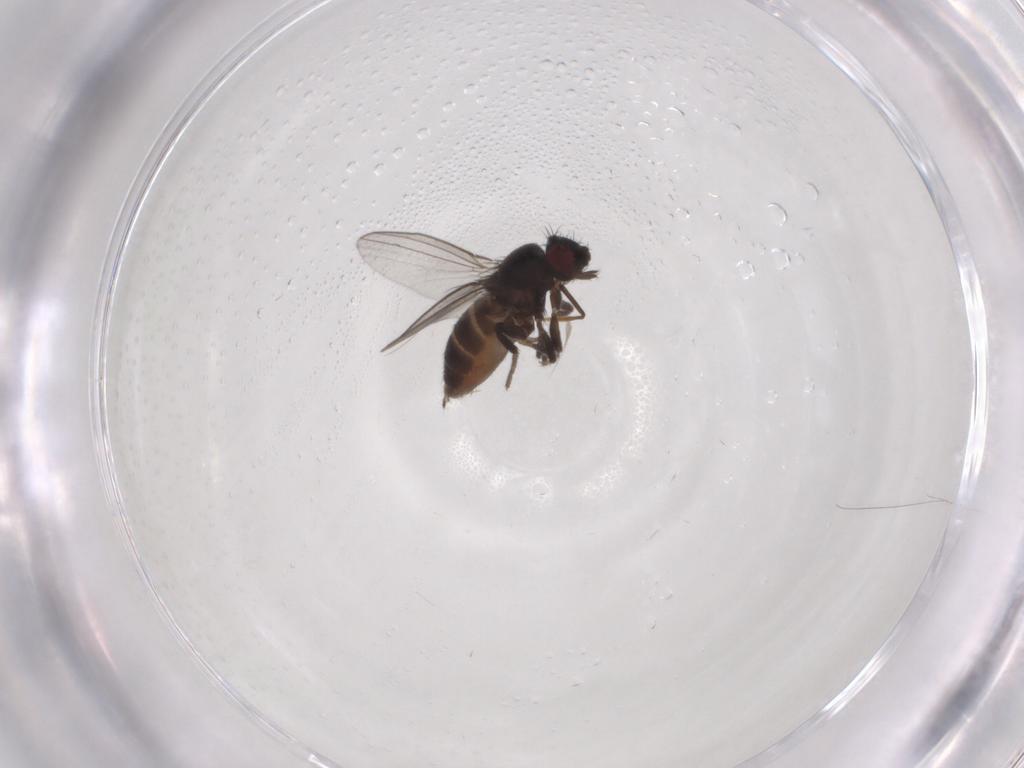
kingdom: Animalia
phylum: Arthropoda
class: Insecta
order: Diptera
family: Milichiidae
